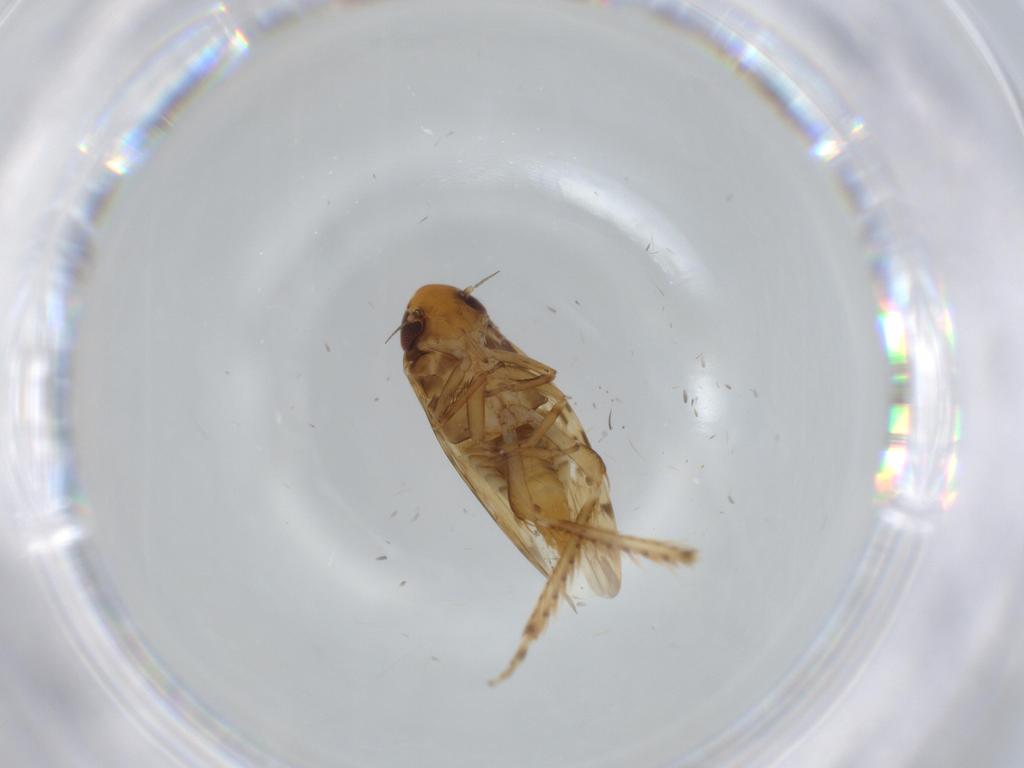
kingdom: Animalia
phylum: Arthropoda
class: Insecta
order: Hemiptera
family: Cicadellidae
